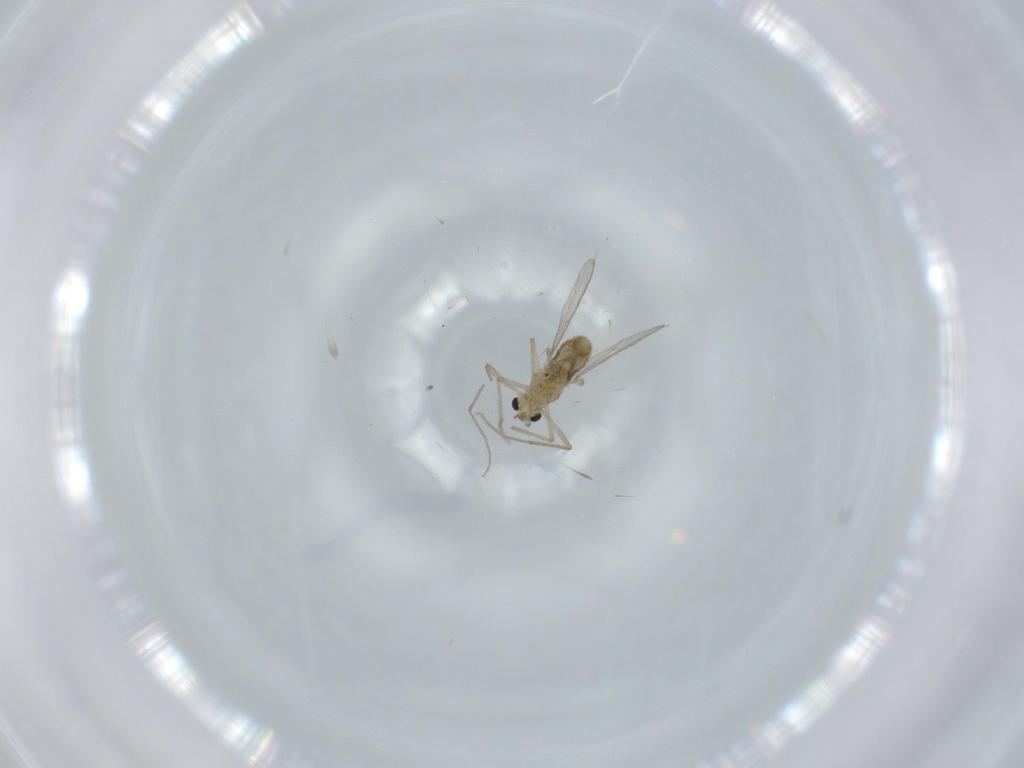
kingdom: Animalia
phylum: Arthropoda
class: Insecta
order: Diptera
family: Chironomidae
